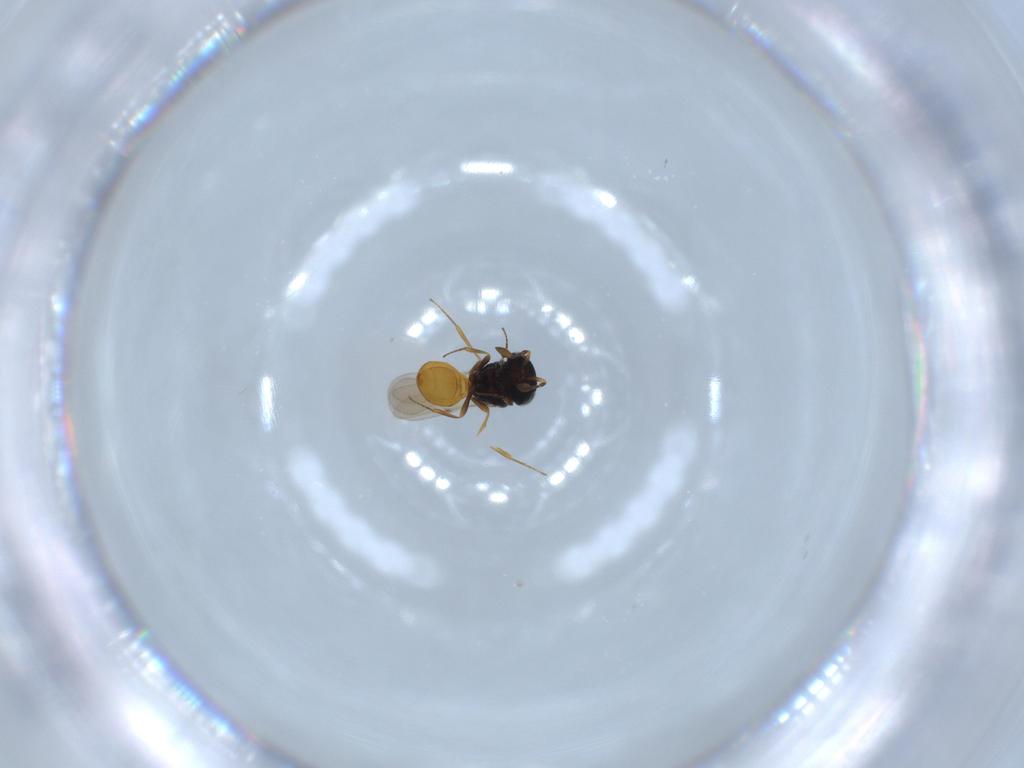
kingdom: Animalia
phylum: Arthropoda
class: Insecta
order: Hymenoptera
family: Scelionidae
